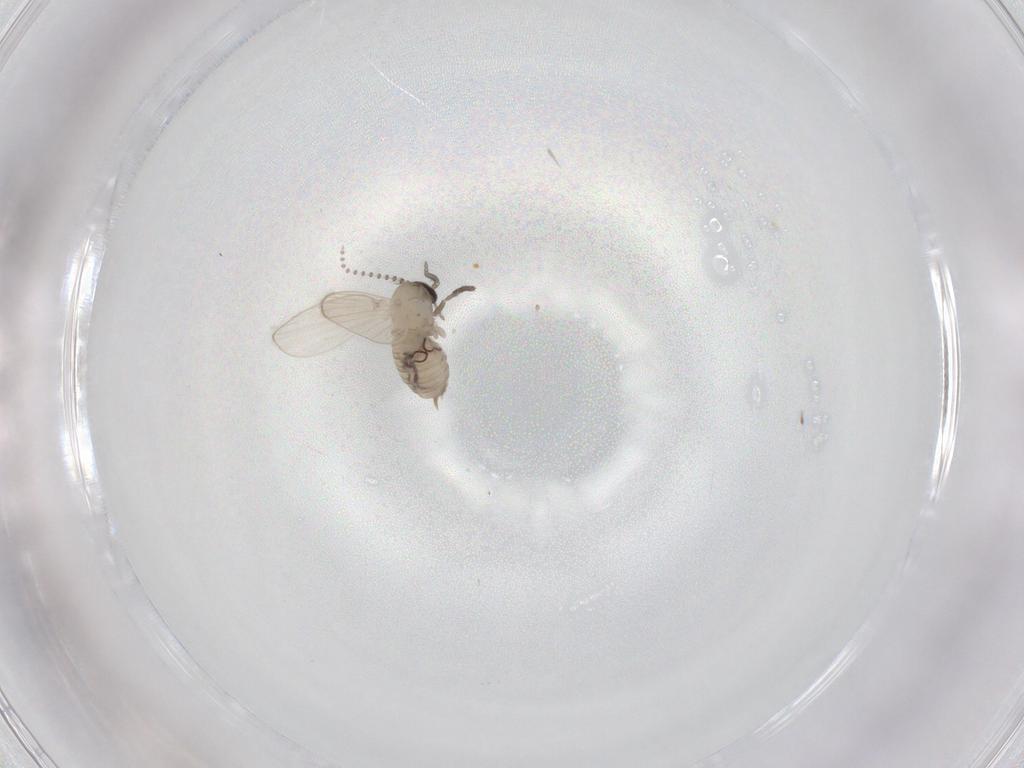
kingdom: Animalia
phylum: Arthropoda
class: Insecta
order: Diptera
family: Psychodidae
